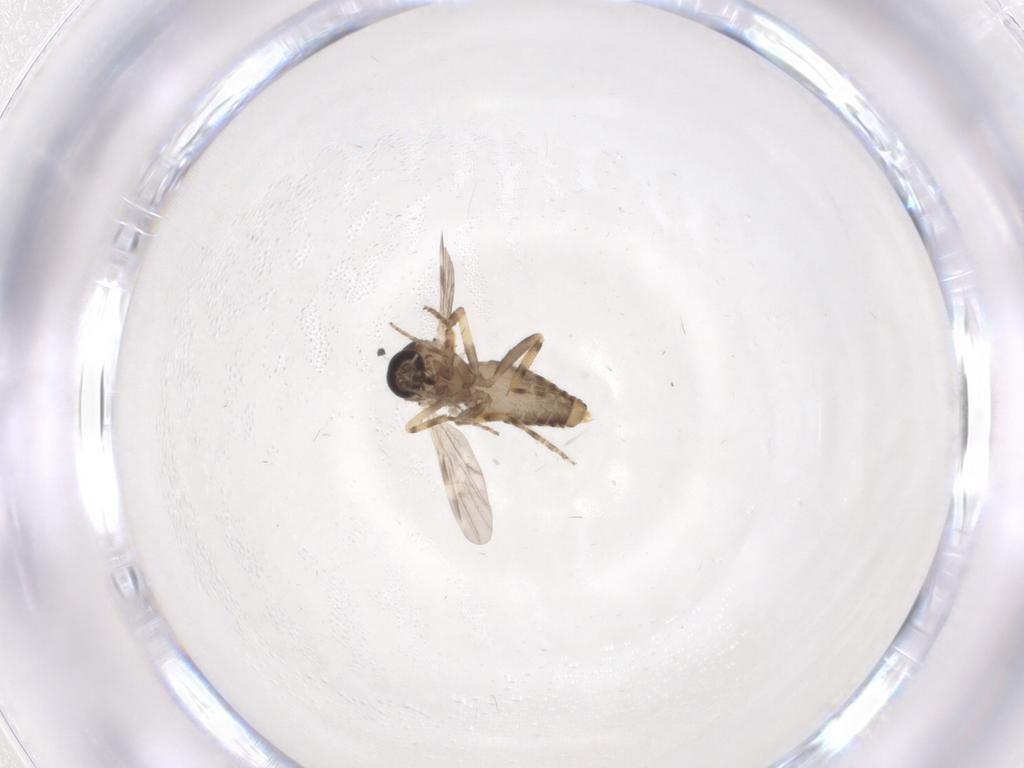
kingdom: Animalia
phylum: Arthropoda
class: Insecta
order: Diptera
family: Ceratopogonidae
